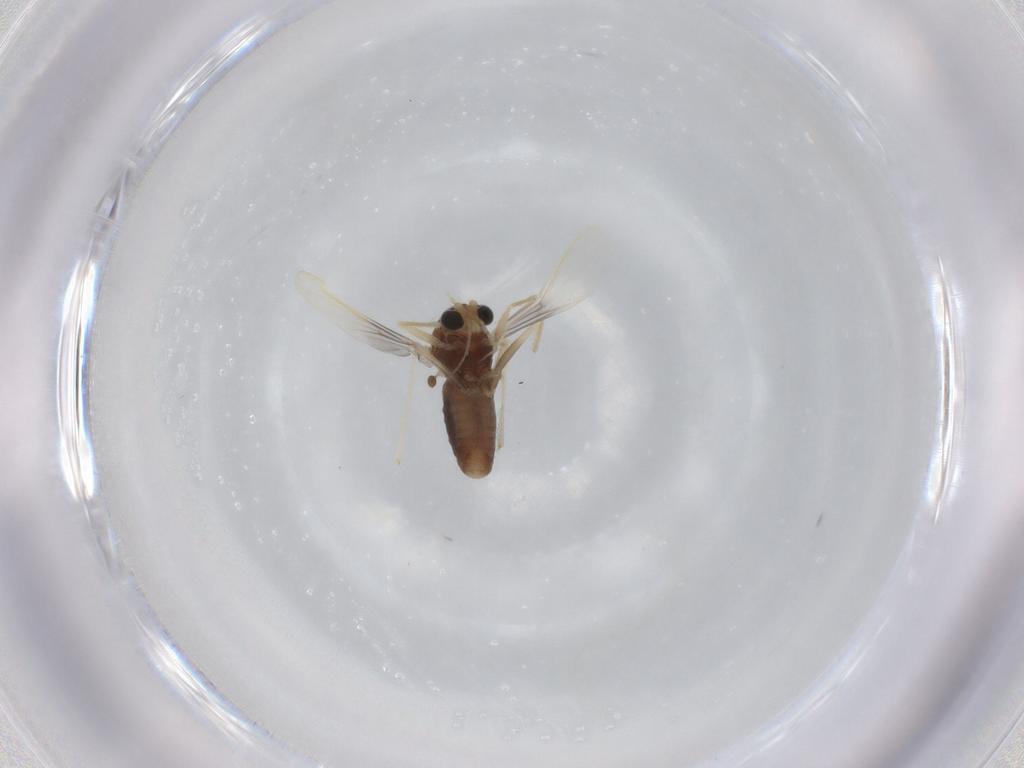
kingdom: Animalia
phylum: Arthropoda
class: Insecta
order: Diptera
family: Chironomidae
